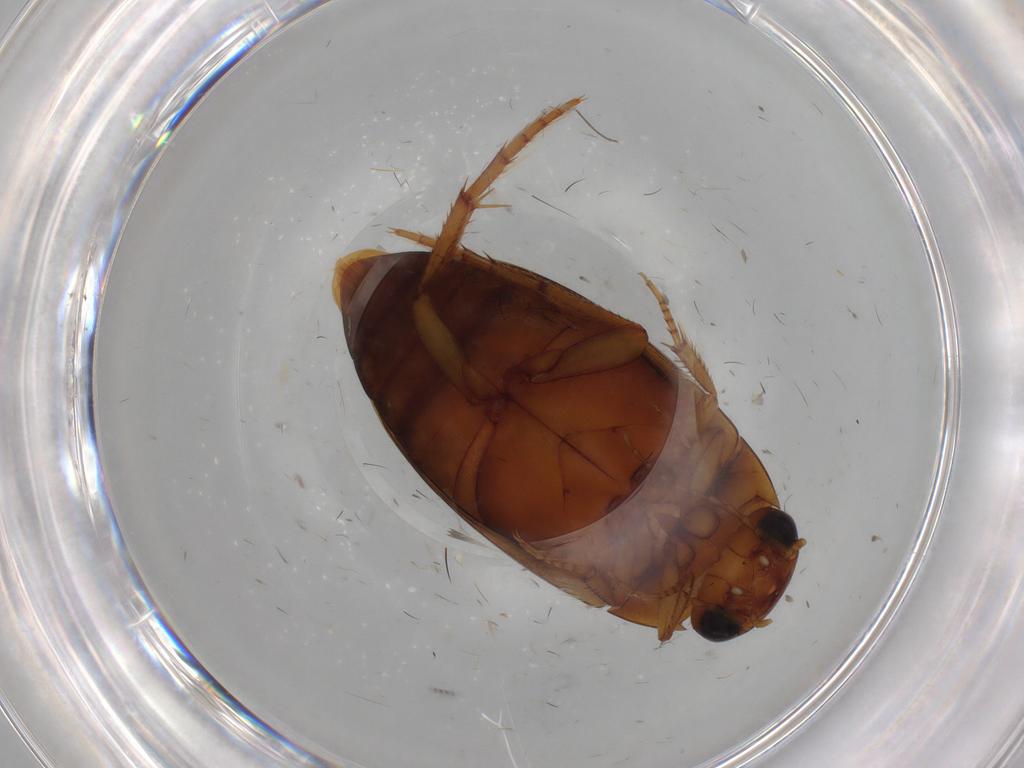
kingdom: Animalia
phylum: Arthropoda
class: Insecta
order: Coleoptera
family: Dytiscidae
